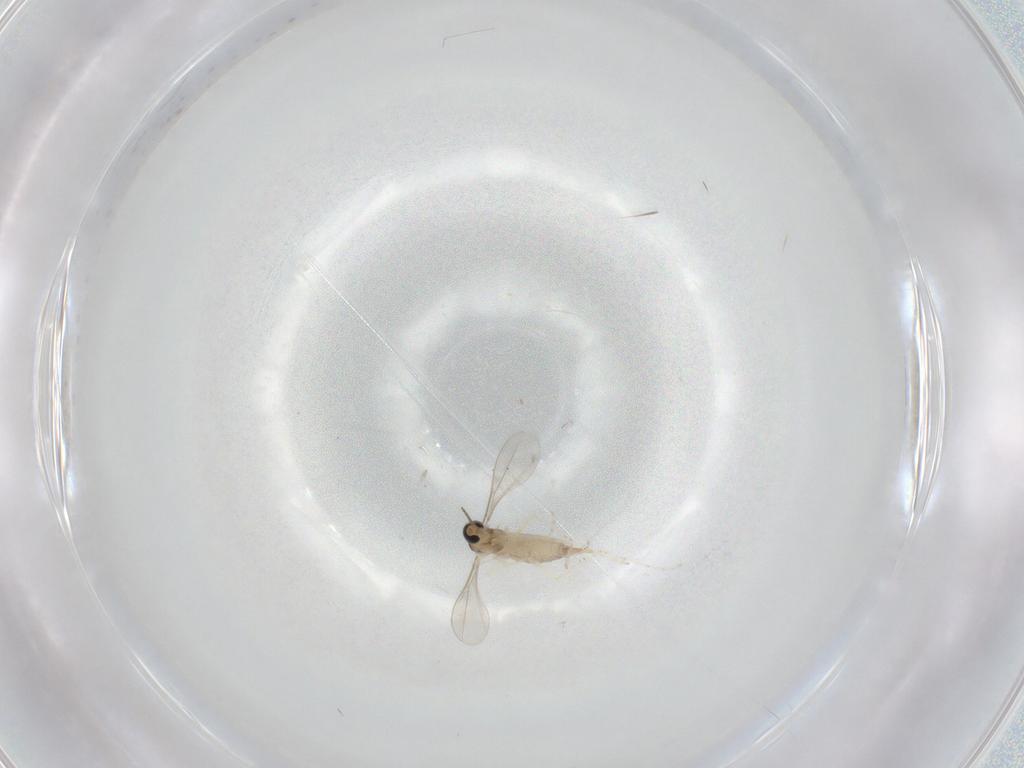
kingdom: Animalia
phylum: Arthropoda
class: Insecta
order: Diptera
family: Phoridae
